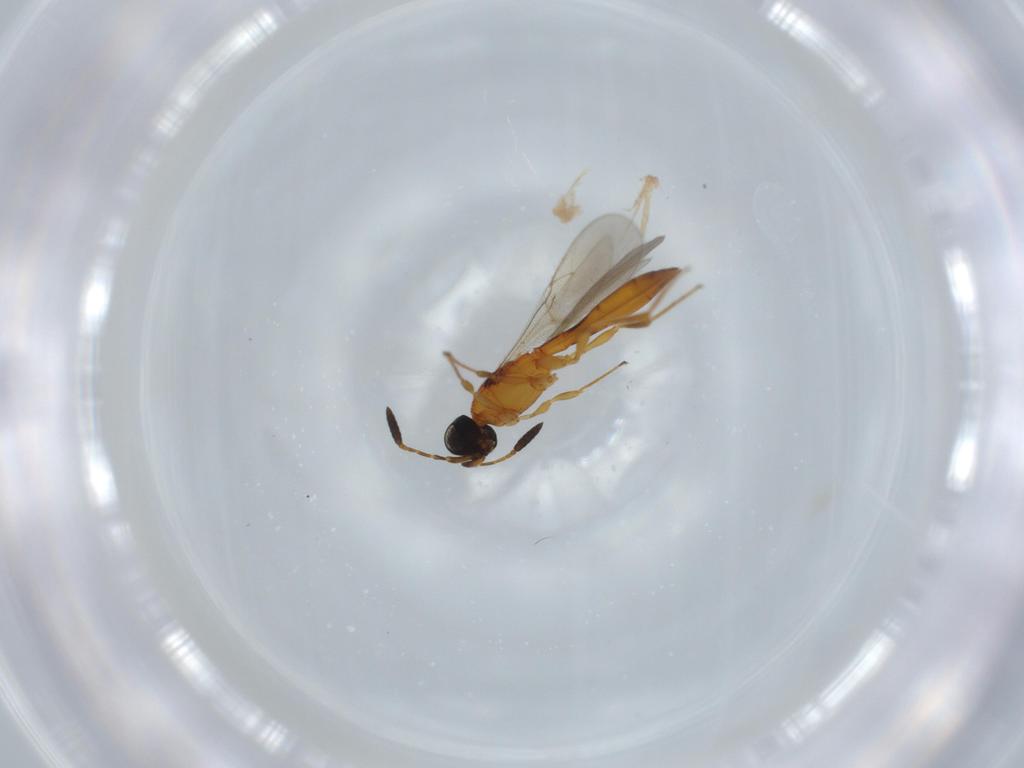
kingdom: Animalia
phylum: Arthropoda
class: Insecta
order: Hymenoptera
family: Scelionidae
